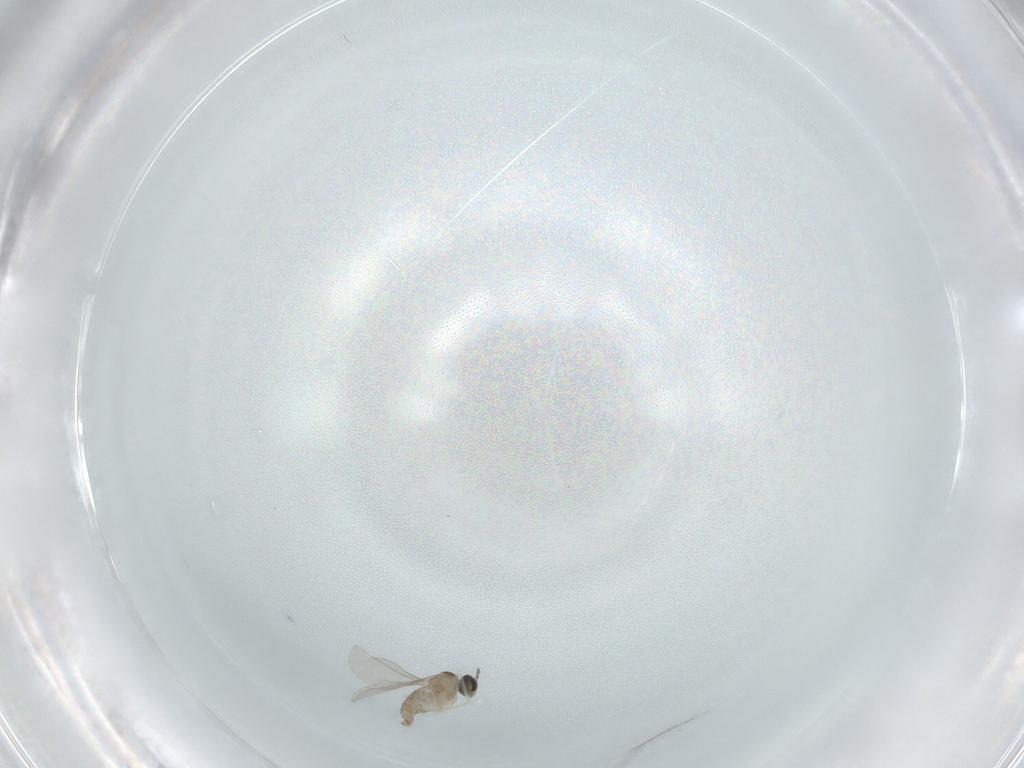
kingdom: Animalia
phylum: Arthropoda
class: Insecta
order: Diptera
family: Cecidomyiidae
